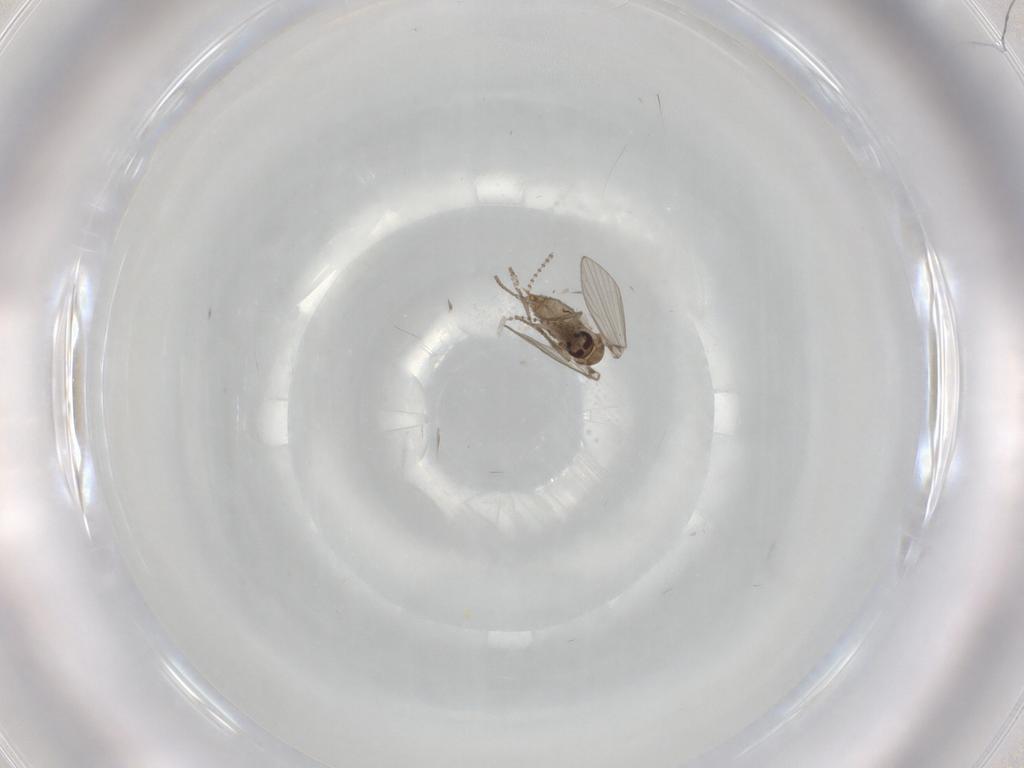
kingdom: Animalia
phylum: Arthropoda
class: Insecta
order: Diptera
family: Psychodidae
